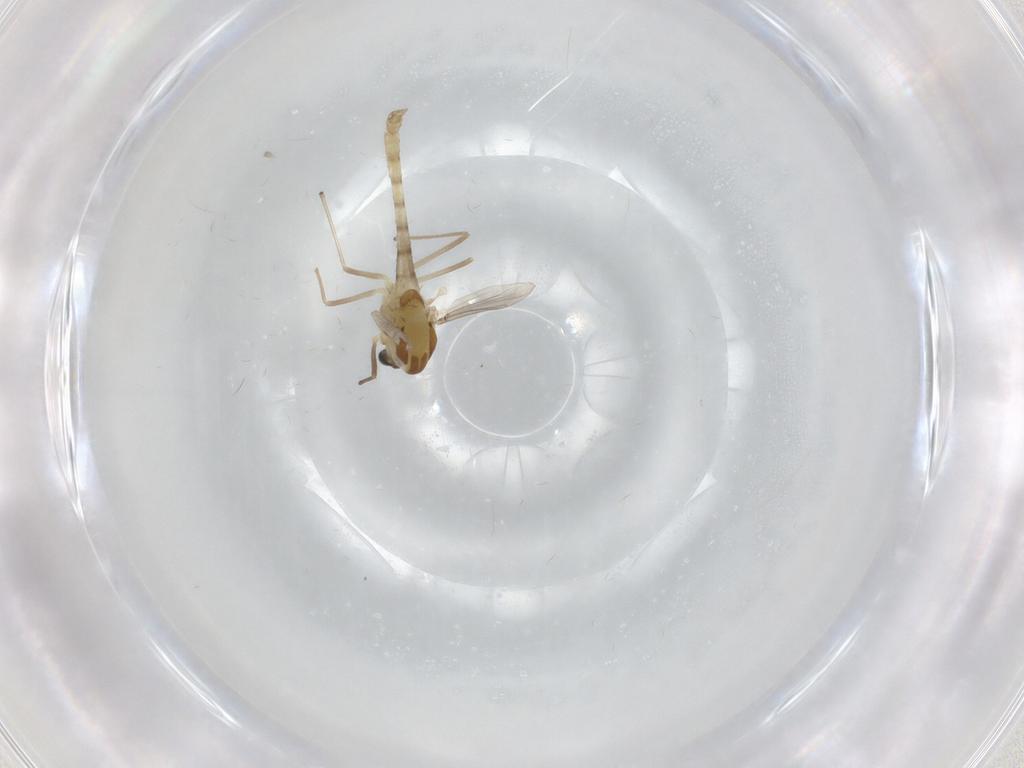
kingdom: Animalia
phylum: Arthropoda
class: Insecta
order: Diptera
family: Chironomidae
